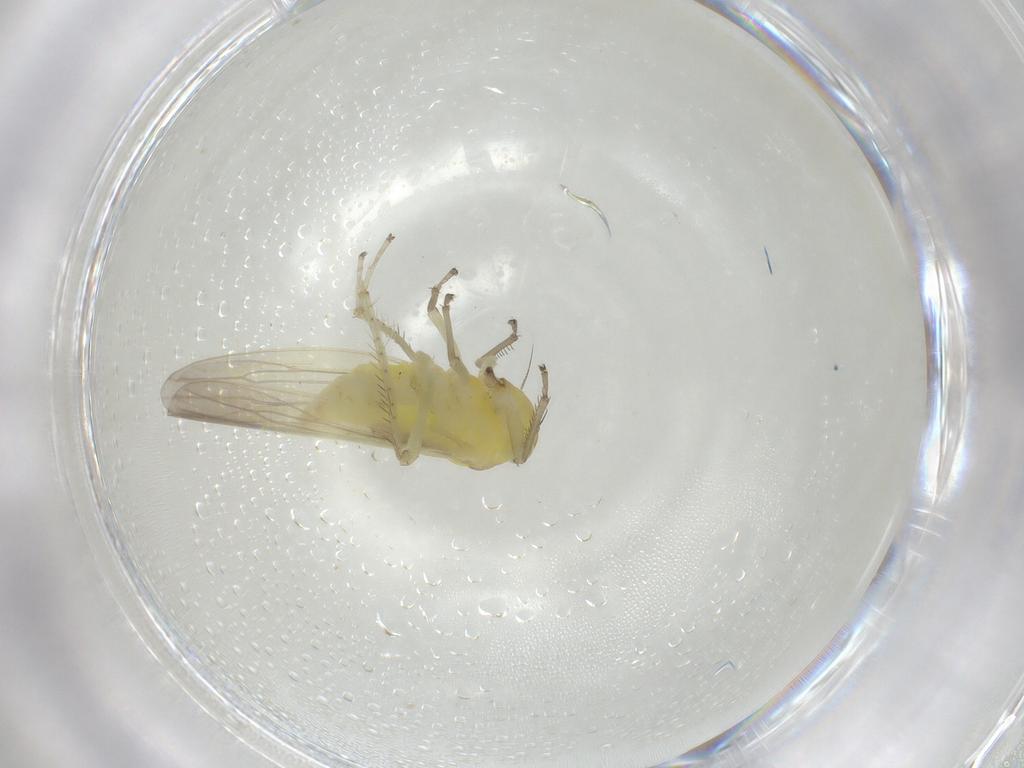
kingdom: Animalia
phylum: Arthropoda
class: Insecta
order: Hemiptera
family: Cicadellidae
